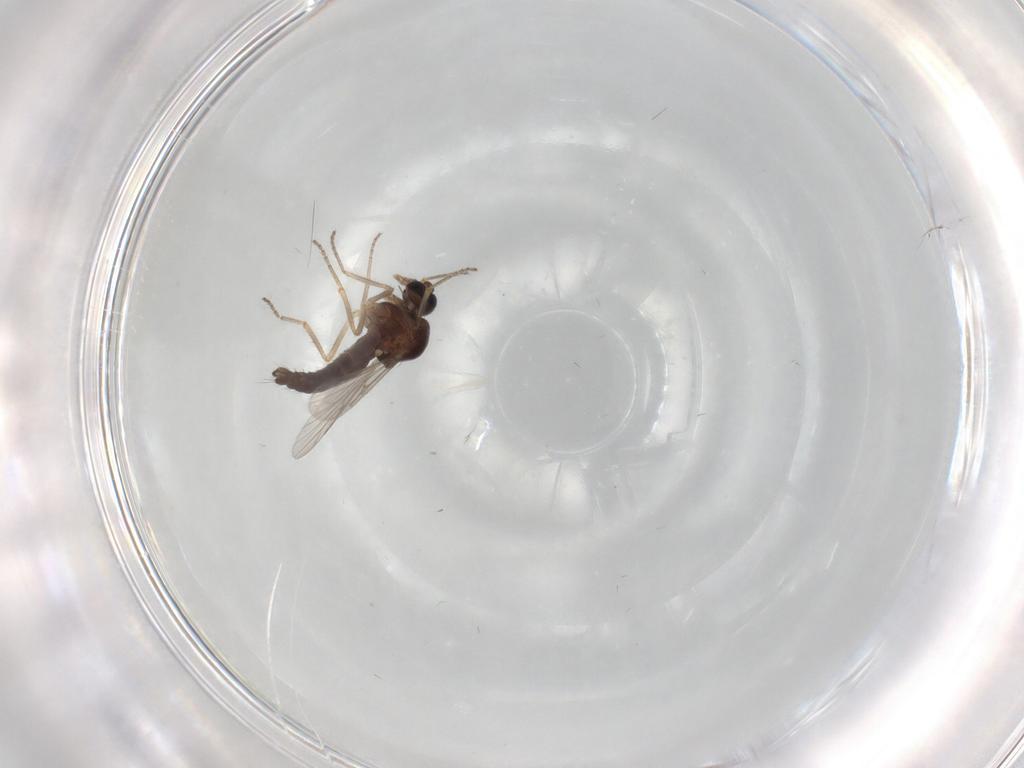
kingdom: Animalia
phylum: Arthropoda
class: Insecta
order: Diptera
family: Ceratopogonidae
